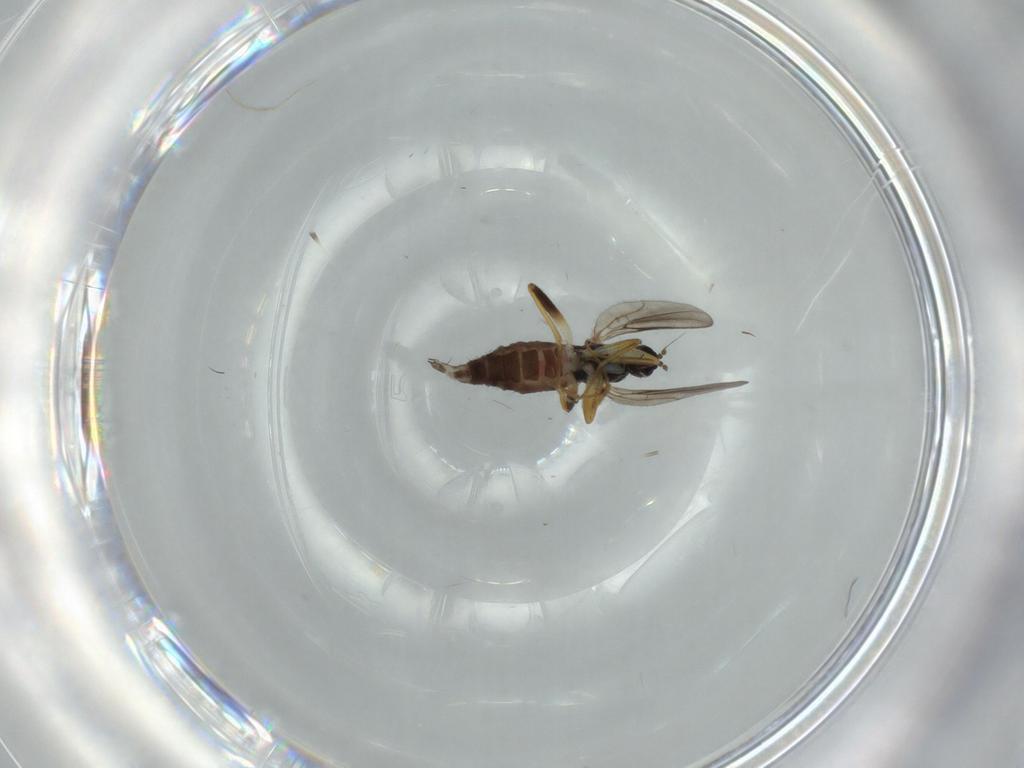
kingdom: Animalia
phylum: Arthropoda
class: Insecta
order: Diptera
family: Hybotidae
